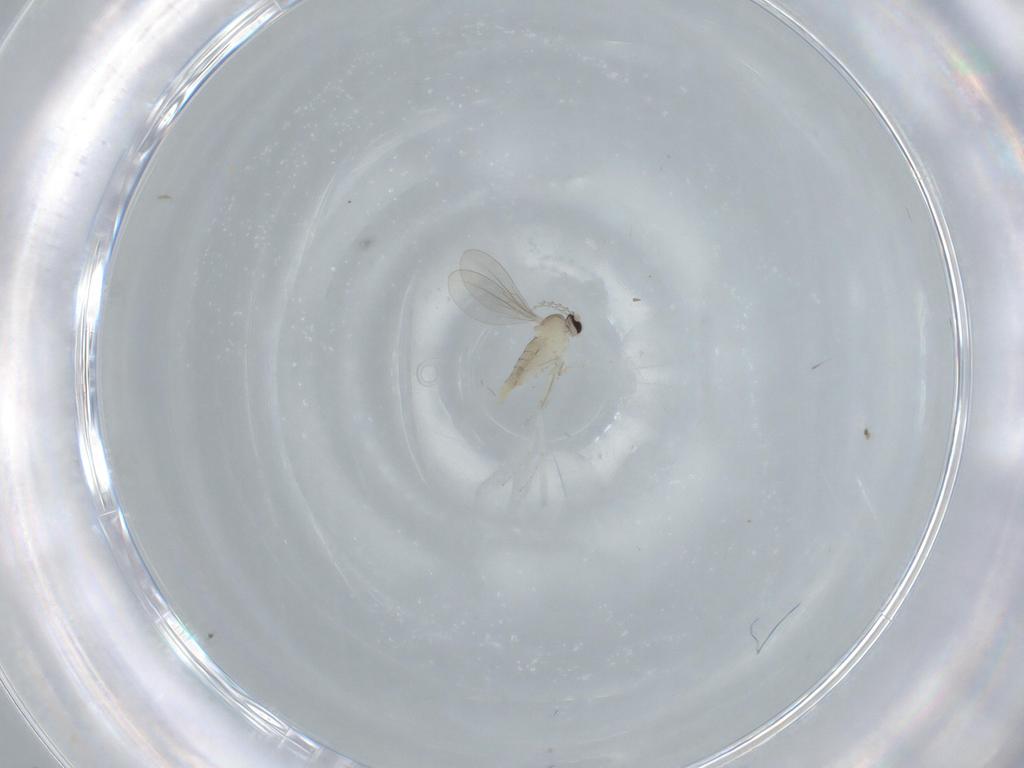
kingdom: Animalia
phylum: Arthropoda
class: Insecta
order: Diptera
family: Cecidomyiidae
